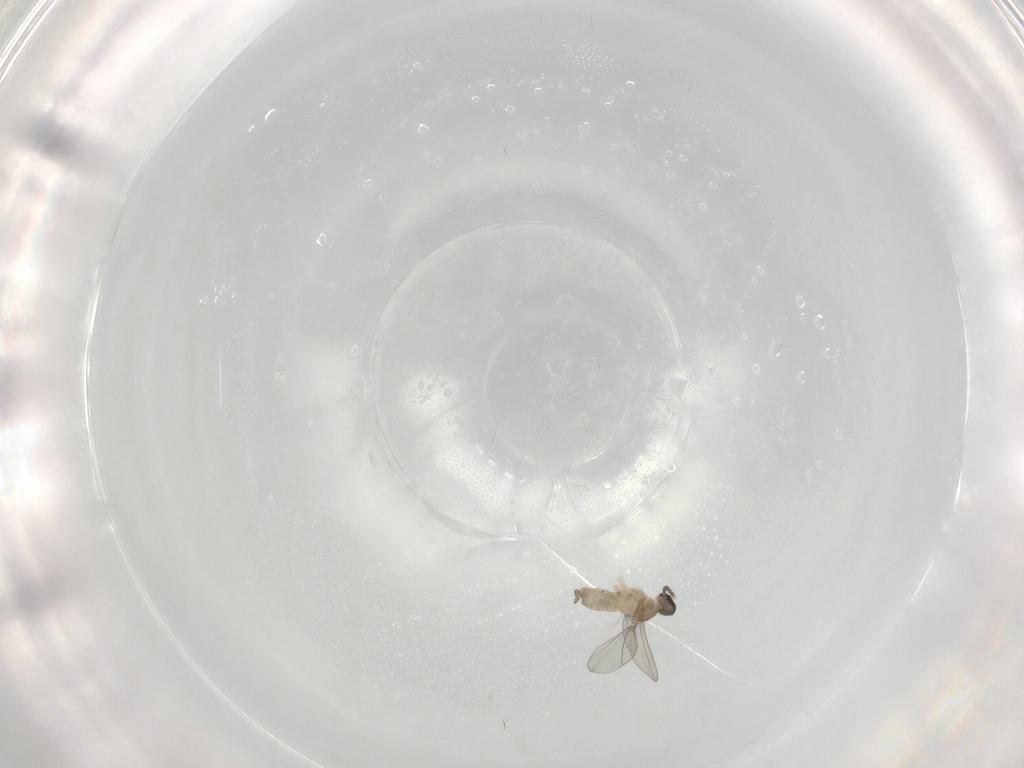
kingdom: Animalia
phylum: Arthropoda
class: Insecta
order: Diptera
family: Cecidomyiidae
